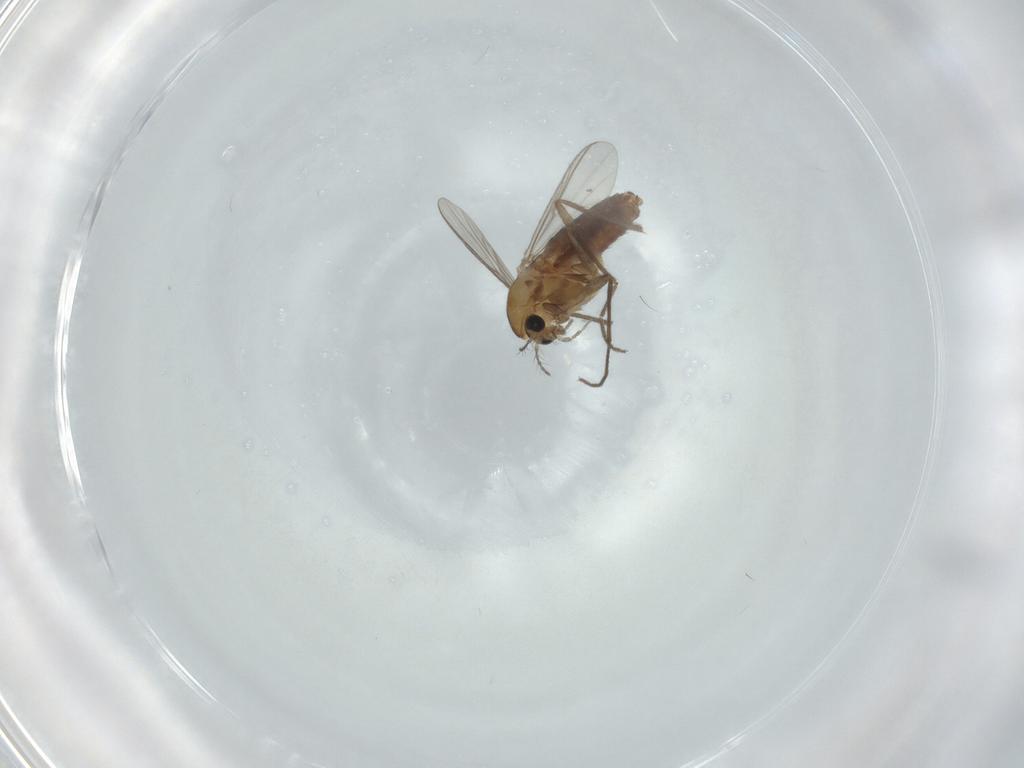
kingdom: Animalia
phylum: Arthropoda
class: Insecta
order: Diptera
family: Chironomidae
